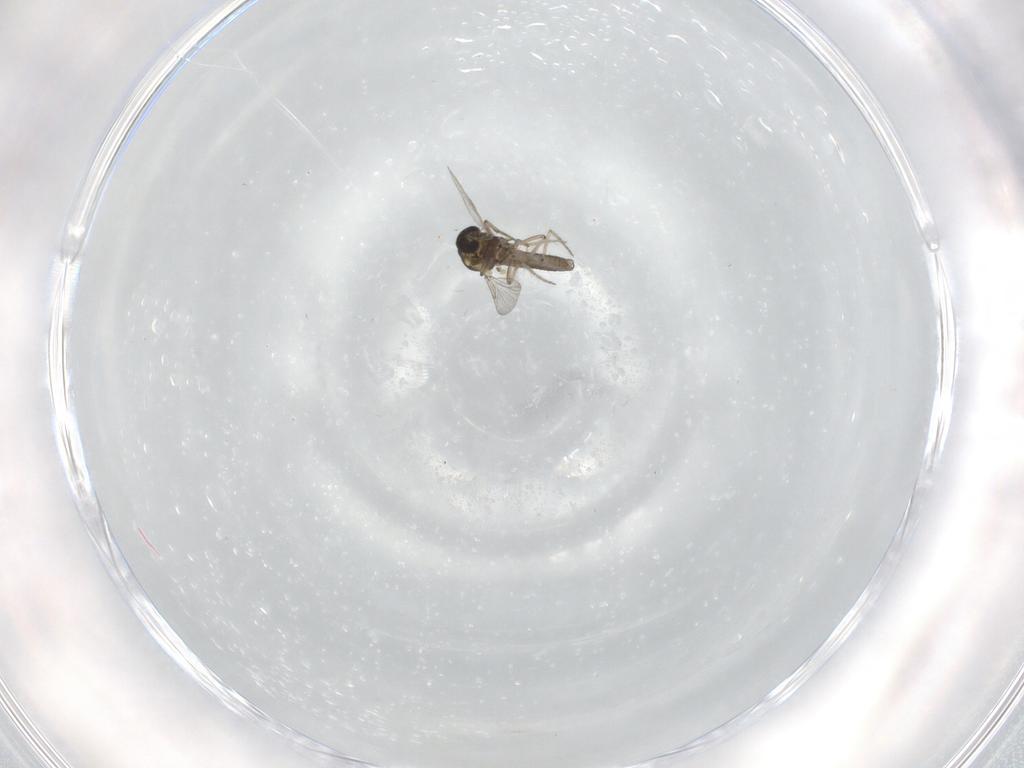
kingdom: Animalia
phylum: Arthropoda
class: Insecta
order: Diptera
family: Ceratopogonidae
